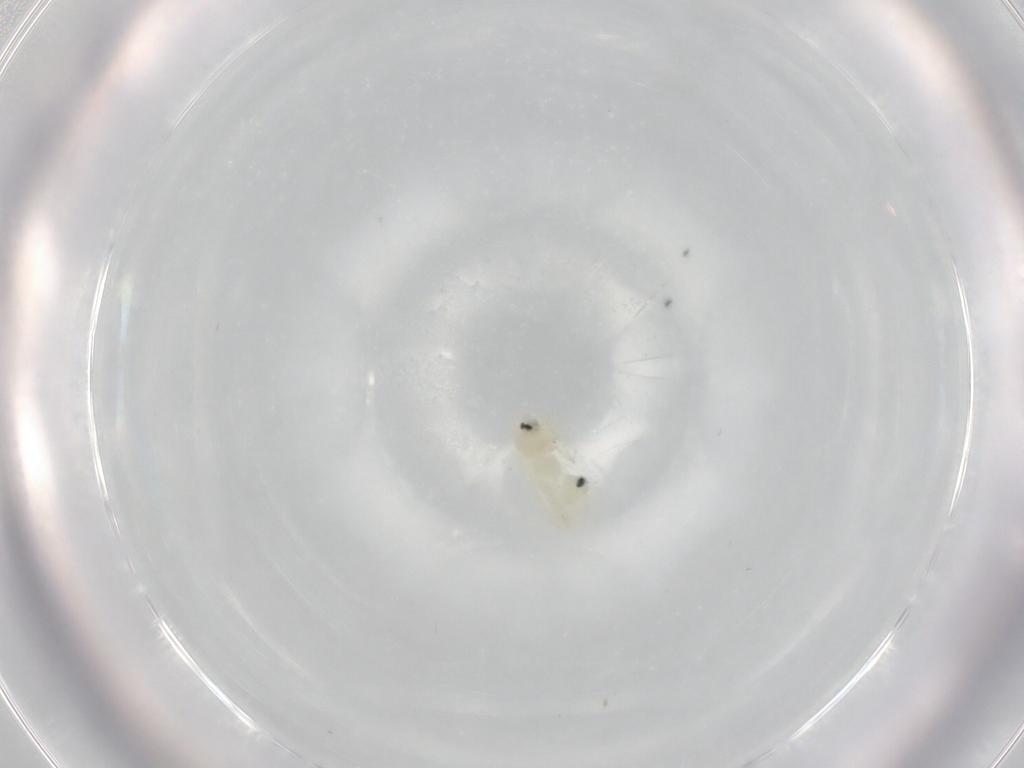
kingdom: Animalia
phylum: Arthropoda
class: Insecta
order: Hemiptera
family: Aleyrodidae
